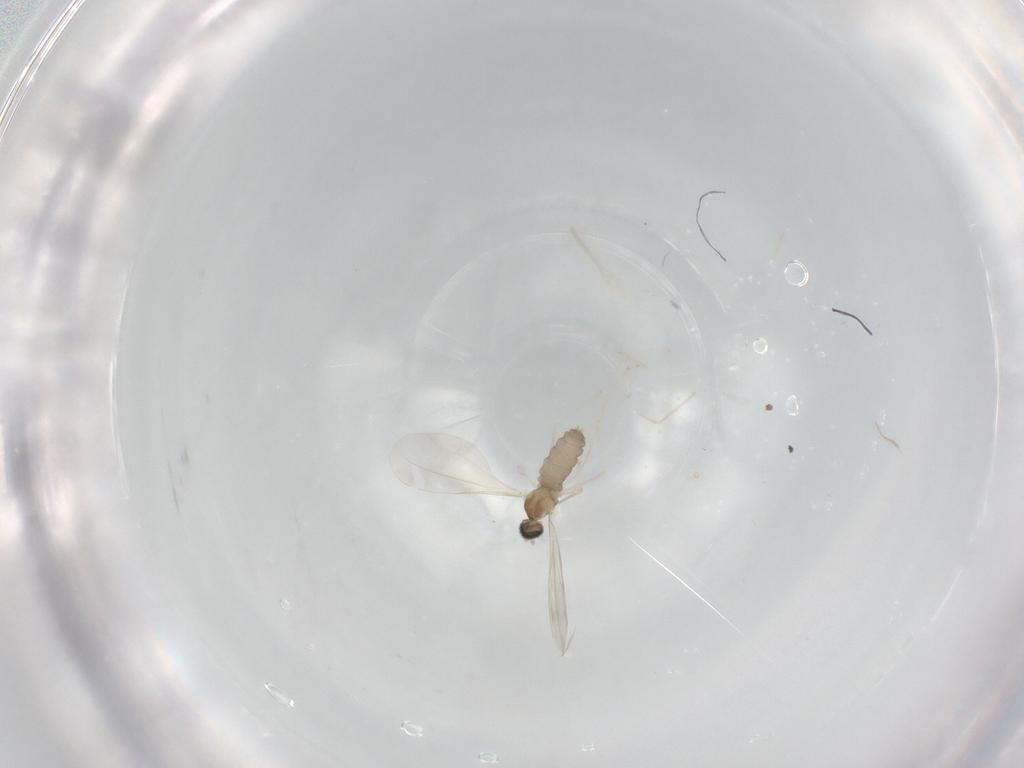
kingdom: Animalia
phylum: Arthropoda
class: Insecta
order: Diptera
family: Cecidomyiidae
